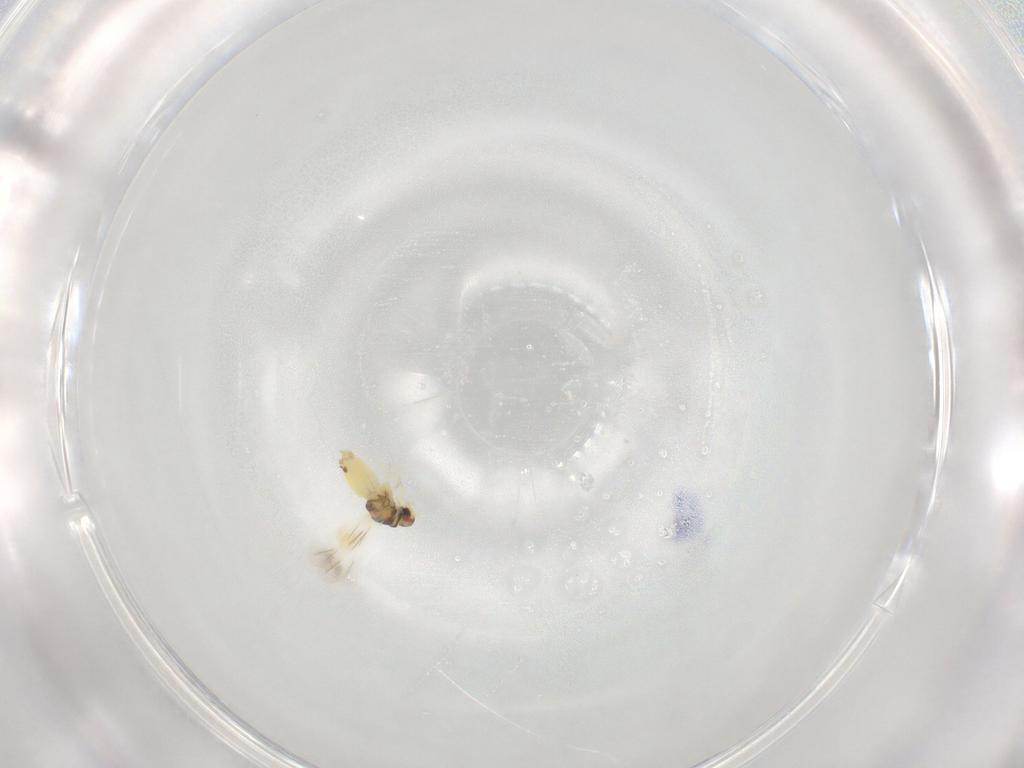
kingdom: Animalia
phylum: Arthropoda
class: Insecta
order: Hemiptera
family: Aleyrodidae
